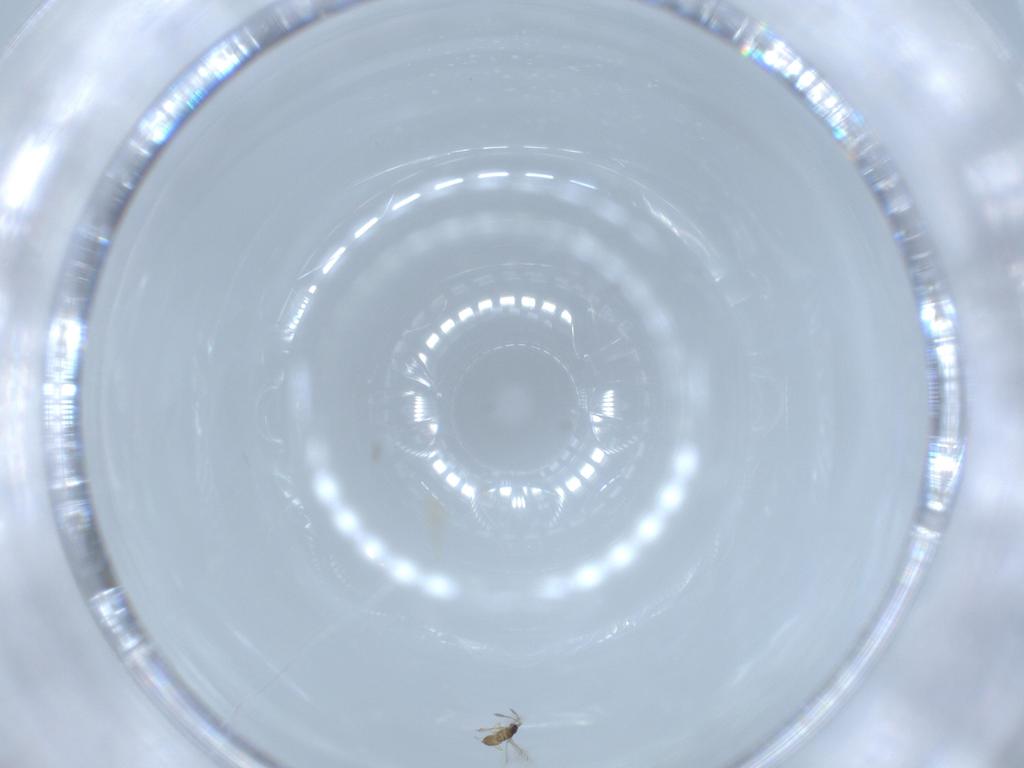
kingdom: Animalia
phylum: Arthropoda
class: Insecta
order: Hymenoptera
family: Mymaridae
